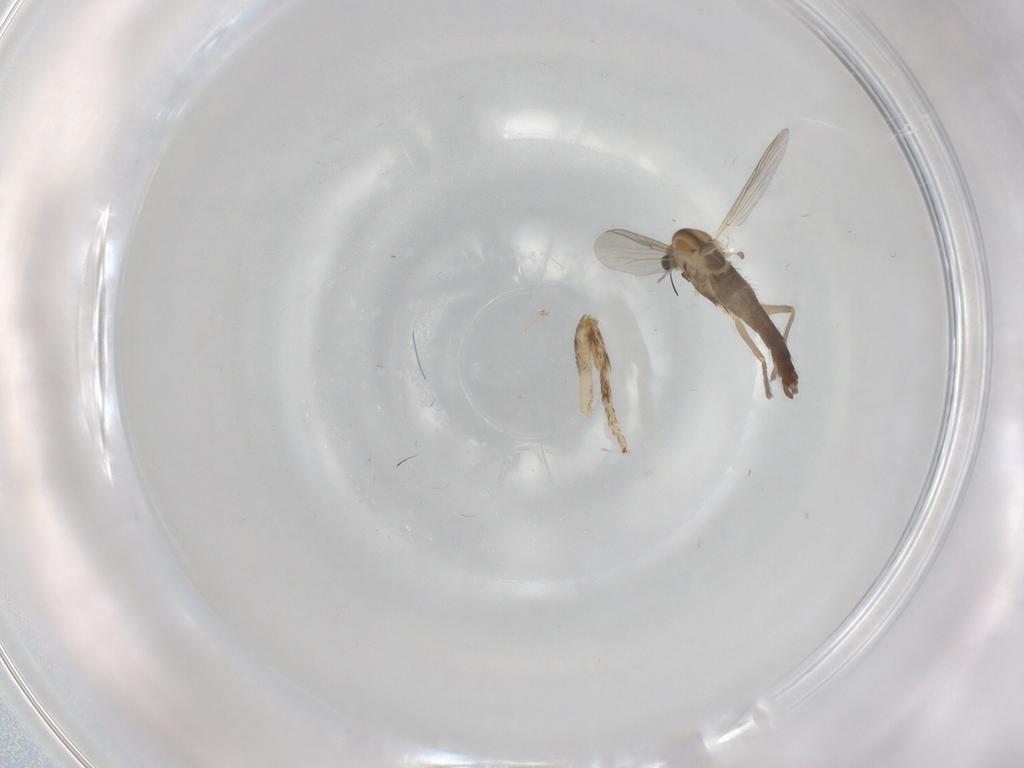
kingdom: Animalia
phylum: Arthropoda
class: Insecta
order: Diptera
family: Chironomidae
